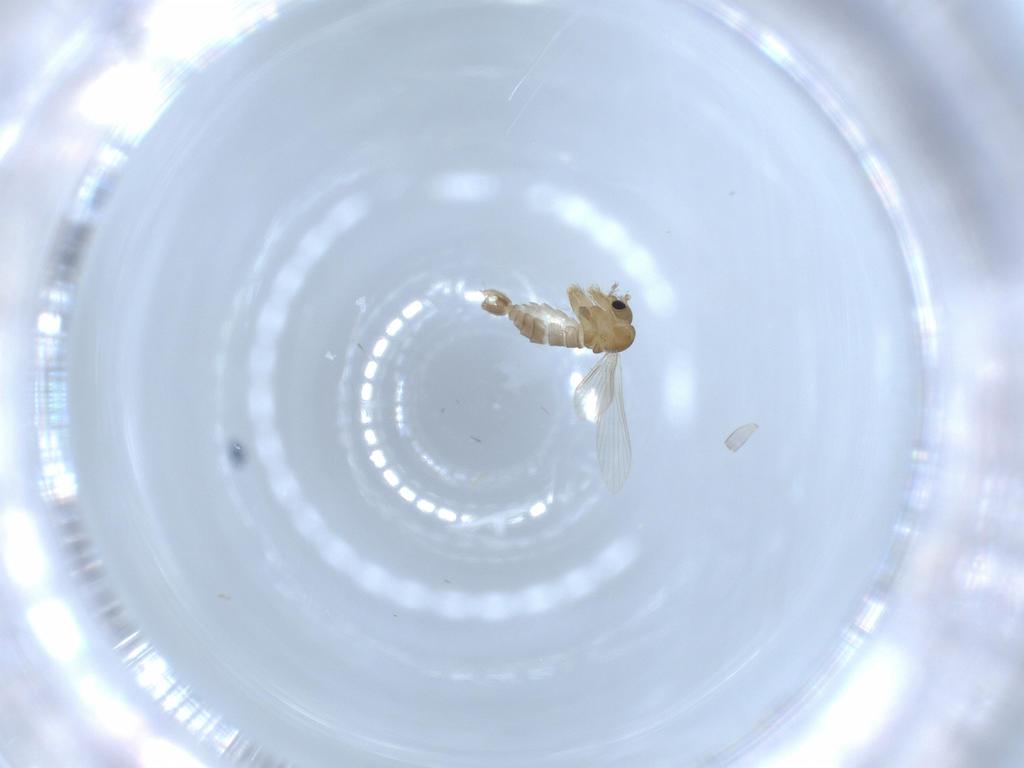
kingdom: Animalia
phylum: Arthropoda
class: Insecta
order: Diptera
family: Psychodidae
